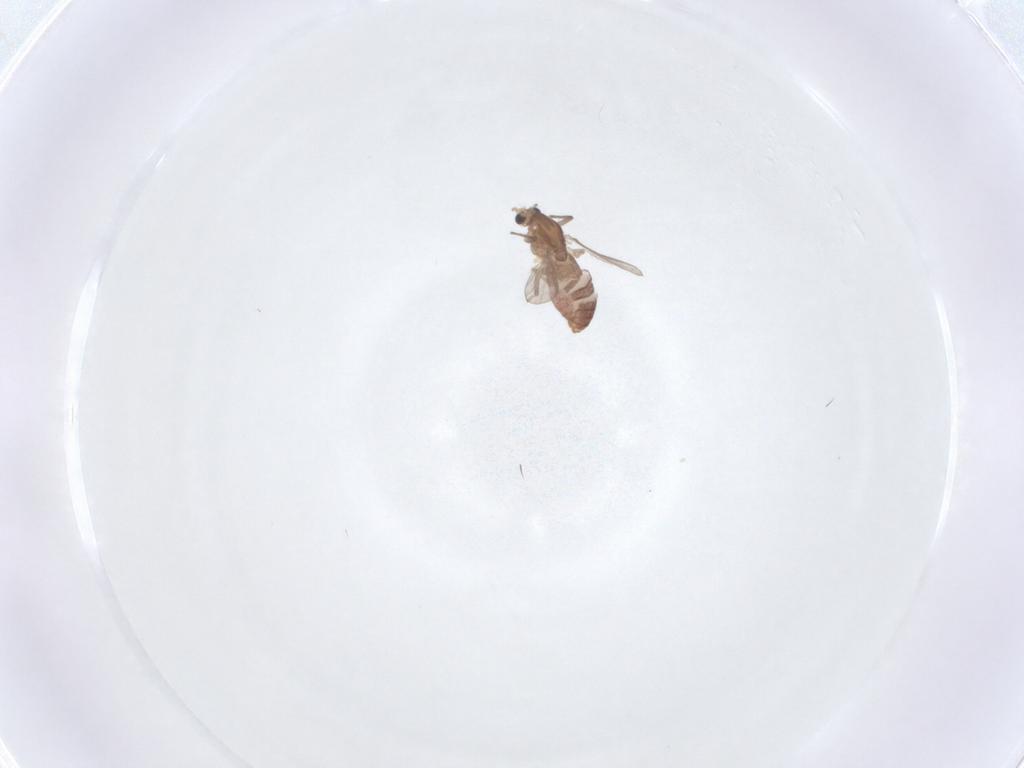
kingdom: Animalia
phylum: Arthropoda
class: Insecta
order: Diptera
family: Chironomidae
